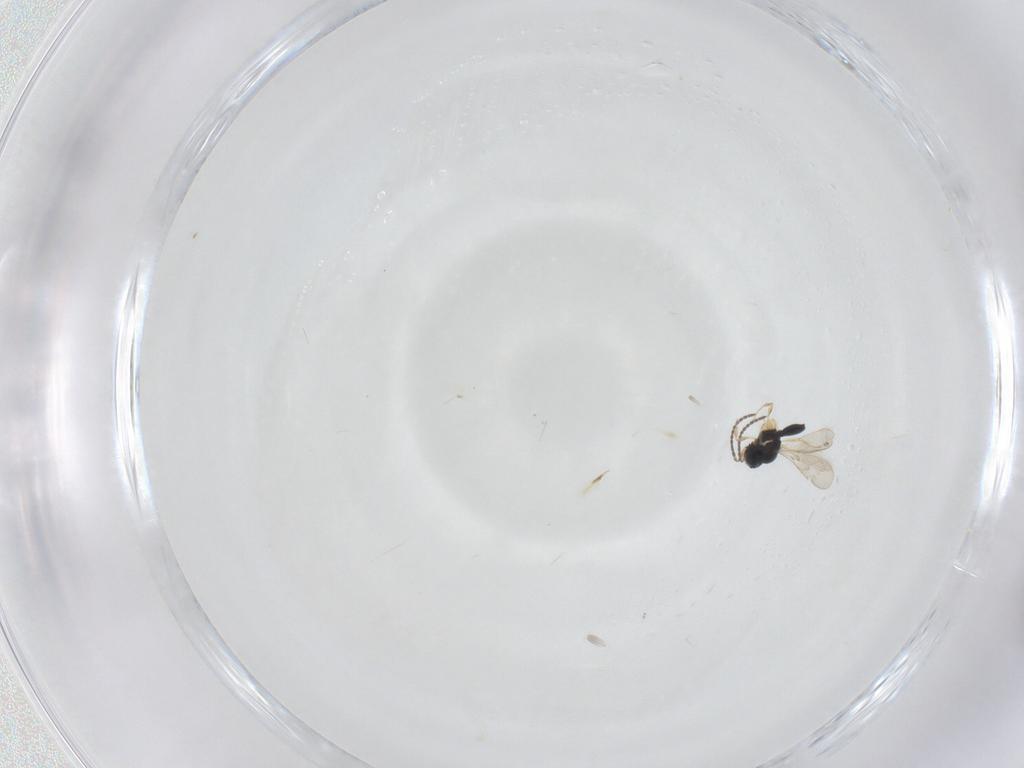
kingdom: Animalia
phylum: Arthropoda
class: Insecta
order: Hymenoptera
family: Scelionidae
